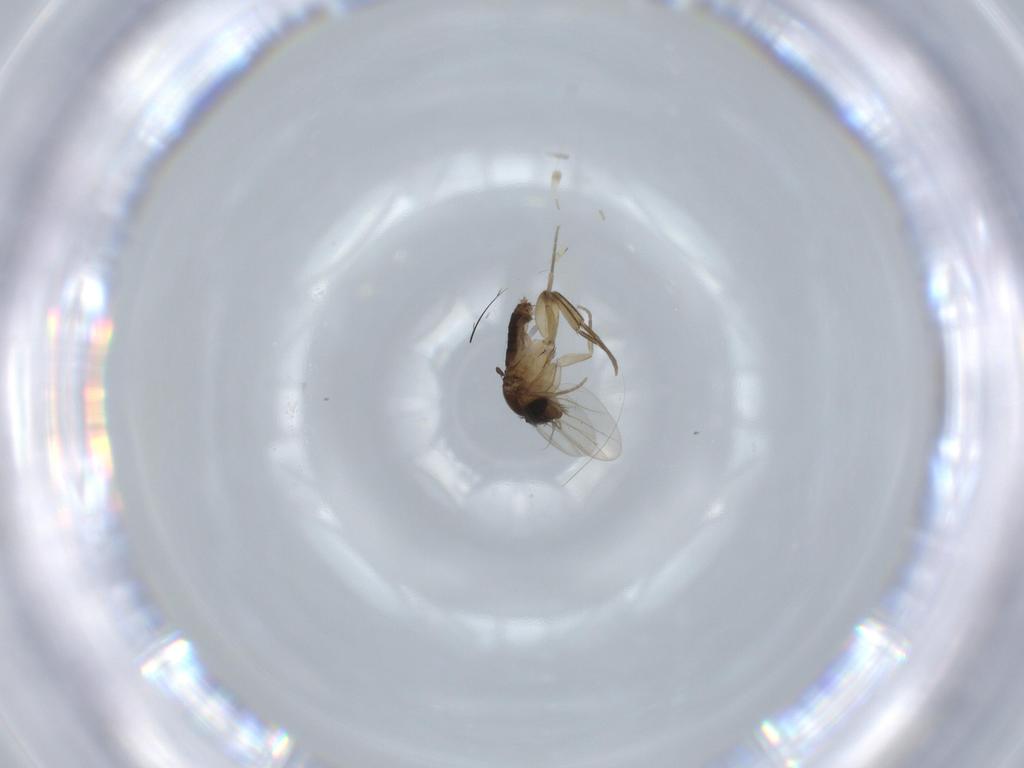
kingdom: Animalia
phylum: Arthropoda
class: Insecta
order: Diptera
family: Phoridae
